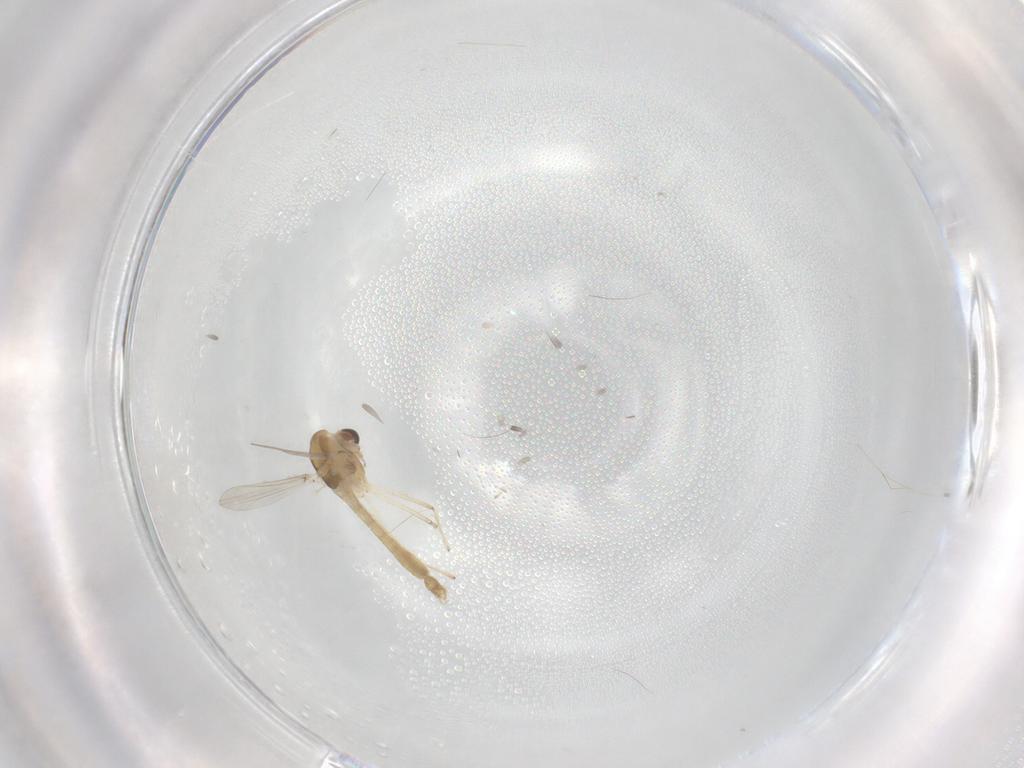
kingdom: Animalia
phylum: Arthropoda
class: Insecta
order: Diptera
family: Chironomidae
